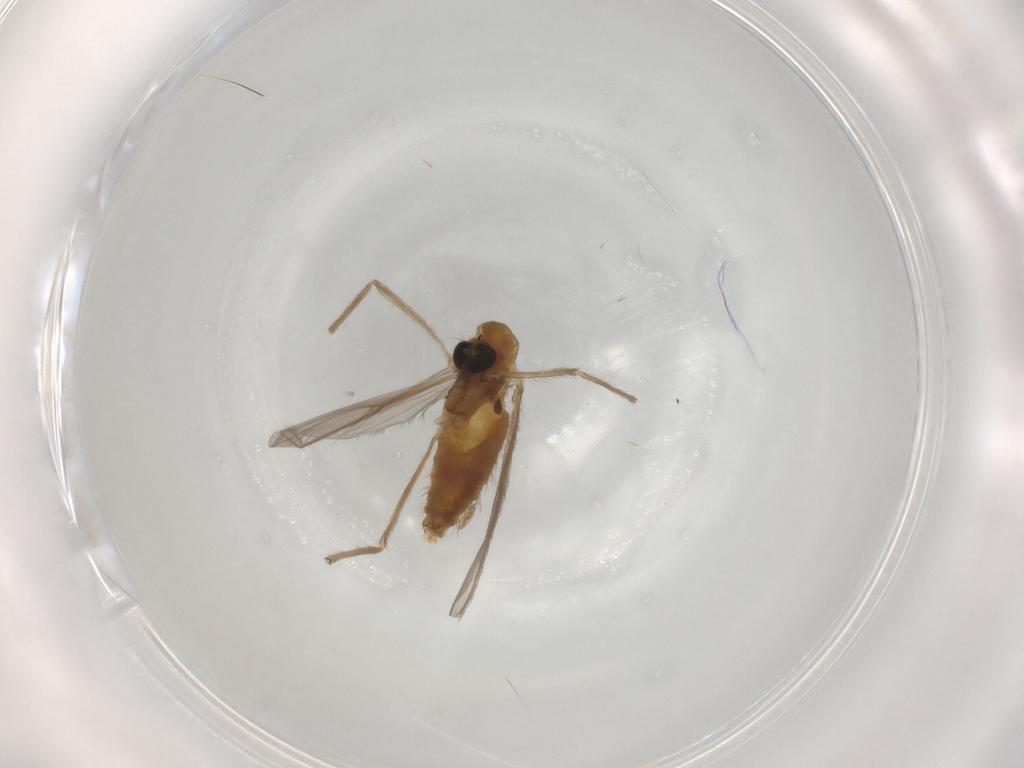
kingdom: Animalia
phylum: Arthropoda
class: Insecta
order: Diptera
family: Chironomidae
